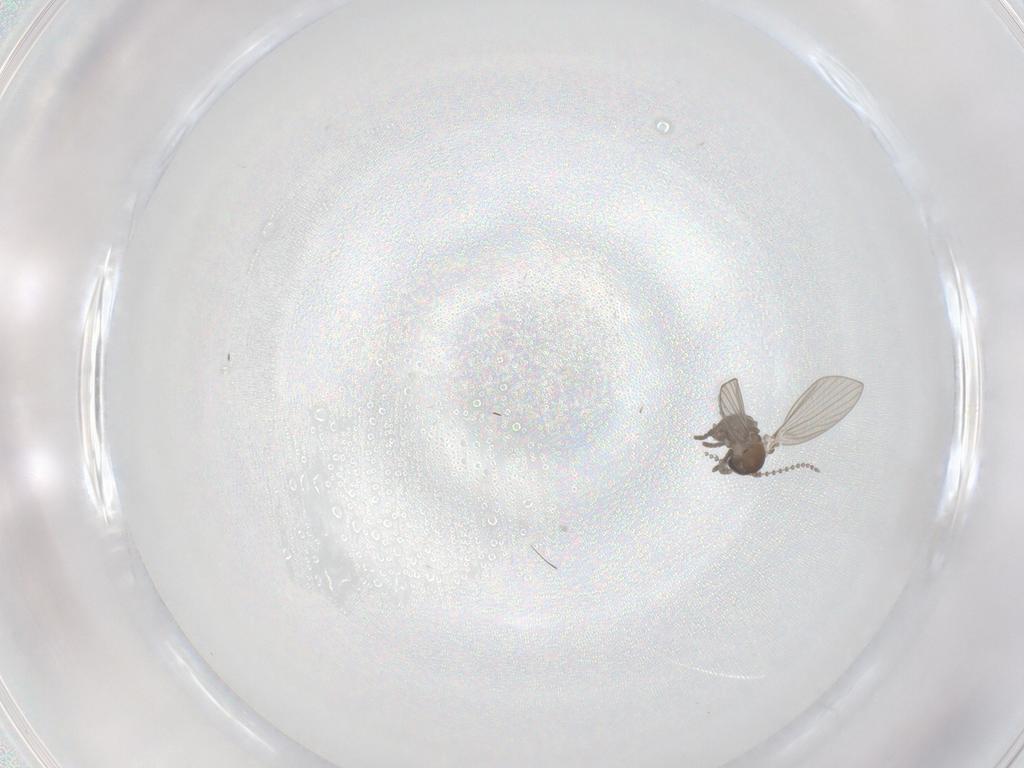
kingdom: Animalia
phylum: Arthropoda
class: Insecta
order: Diptera
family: Psychodidae
